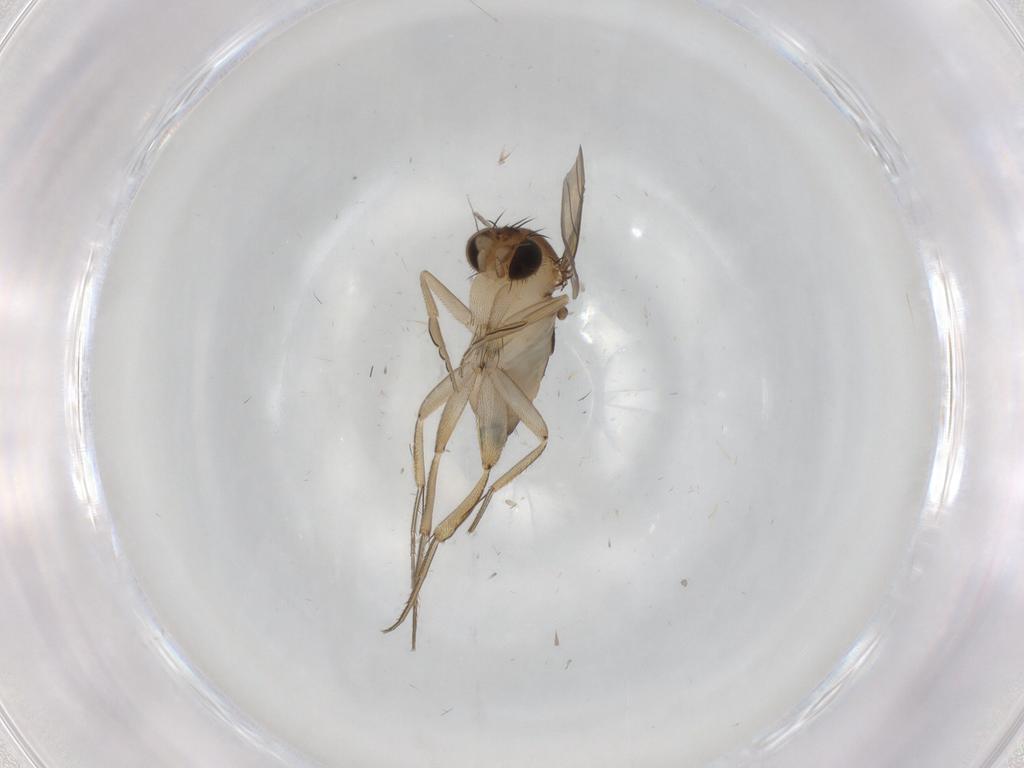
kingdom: Animalia
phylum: Arthropoda
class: Insecta
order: Diptera
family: Phoridae
